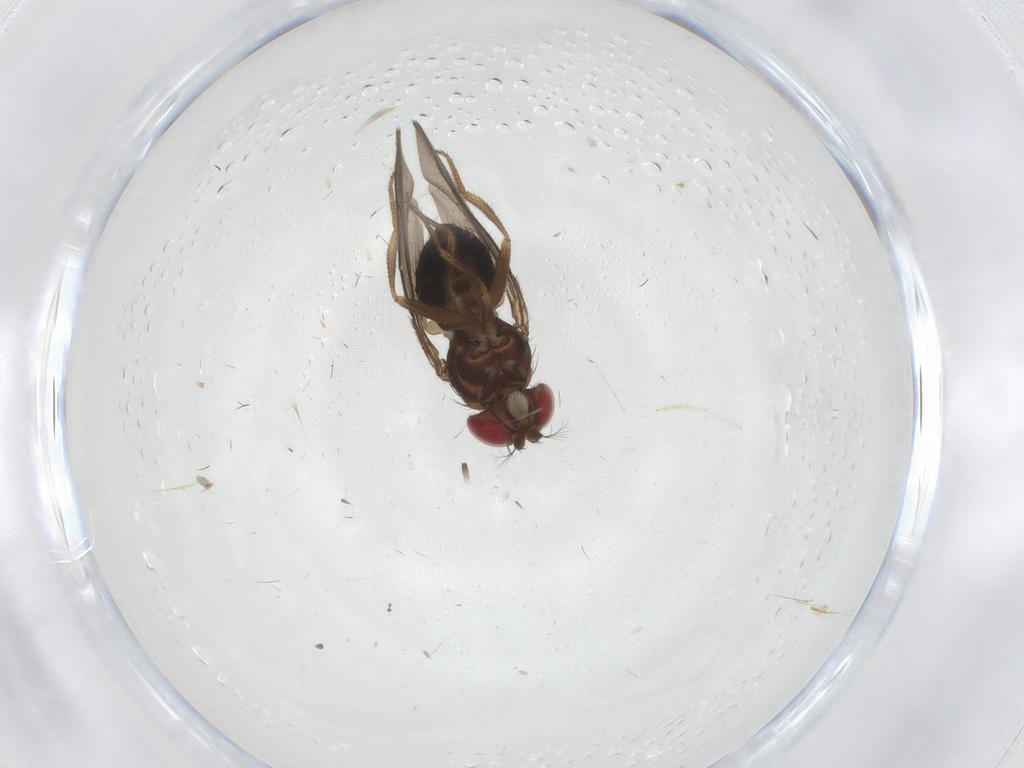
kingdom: Animalia
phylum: Arthropoda
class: Insecta
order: Diptera
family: Drosophilidae
